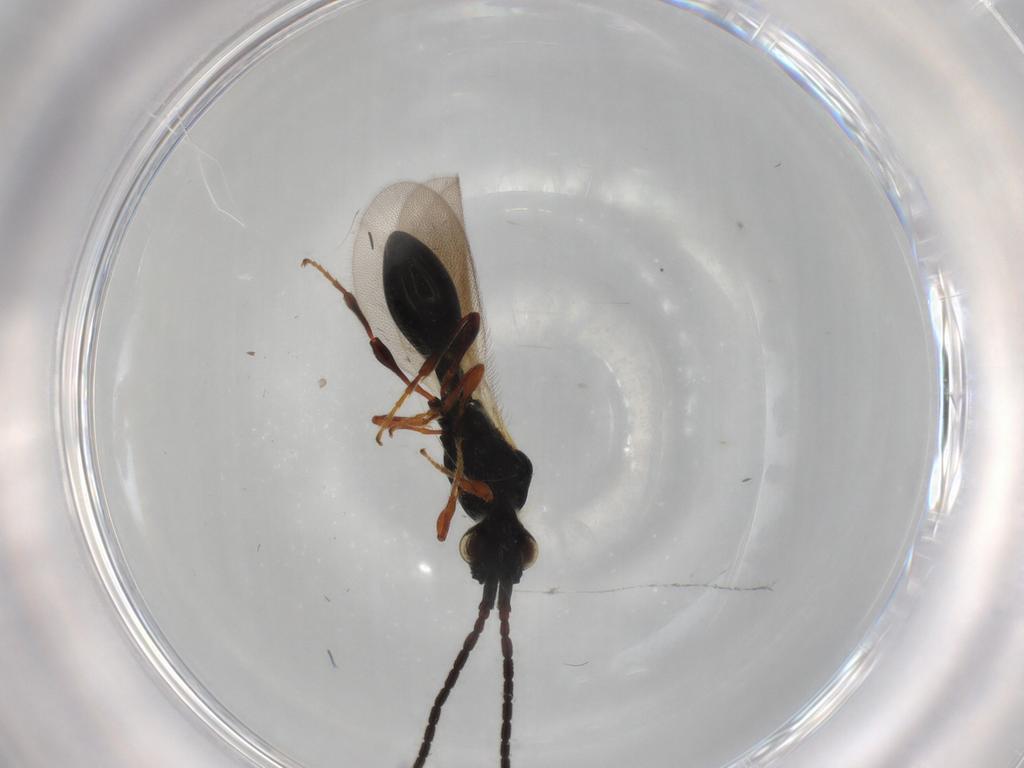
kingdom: Animalia
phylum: Arthropoda
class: Insecta
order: Hymenoptera
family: Diapriidae
